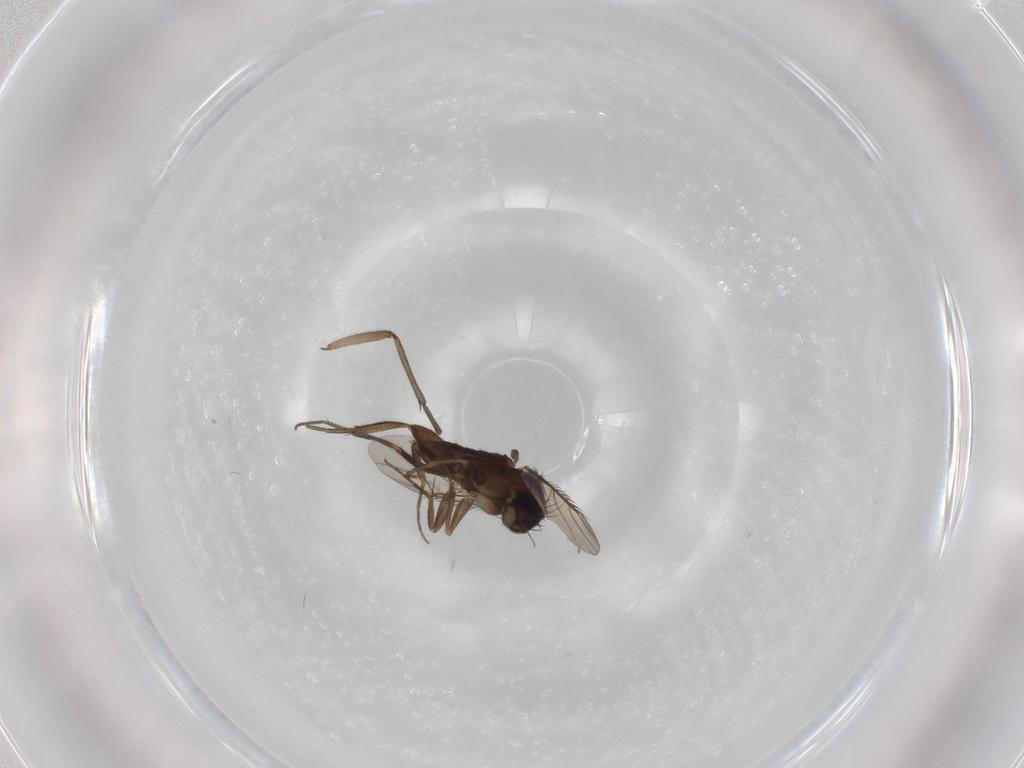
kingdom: Animalia
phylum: Arthropoda
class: Insecta
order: Diptera
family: Phoridae
